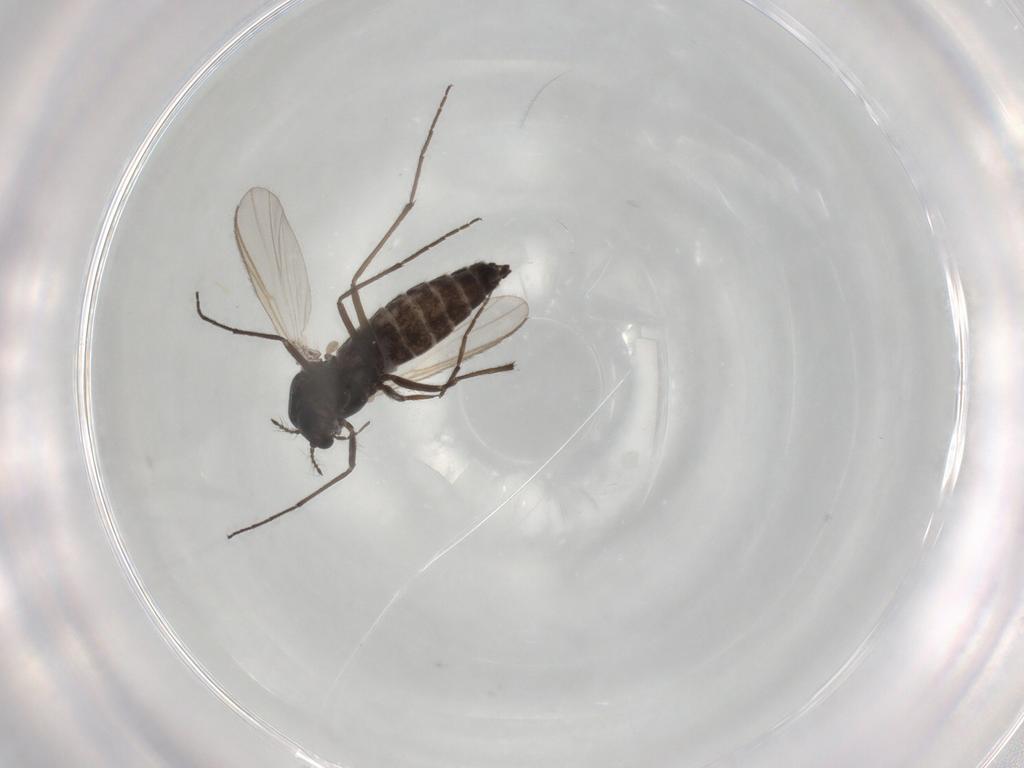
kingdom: Animalia
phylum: Arthropoda
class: Insecta
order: Diptera
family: Chironomidae
